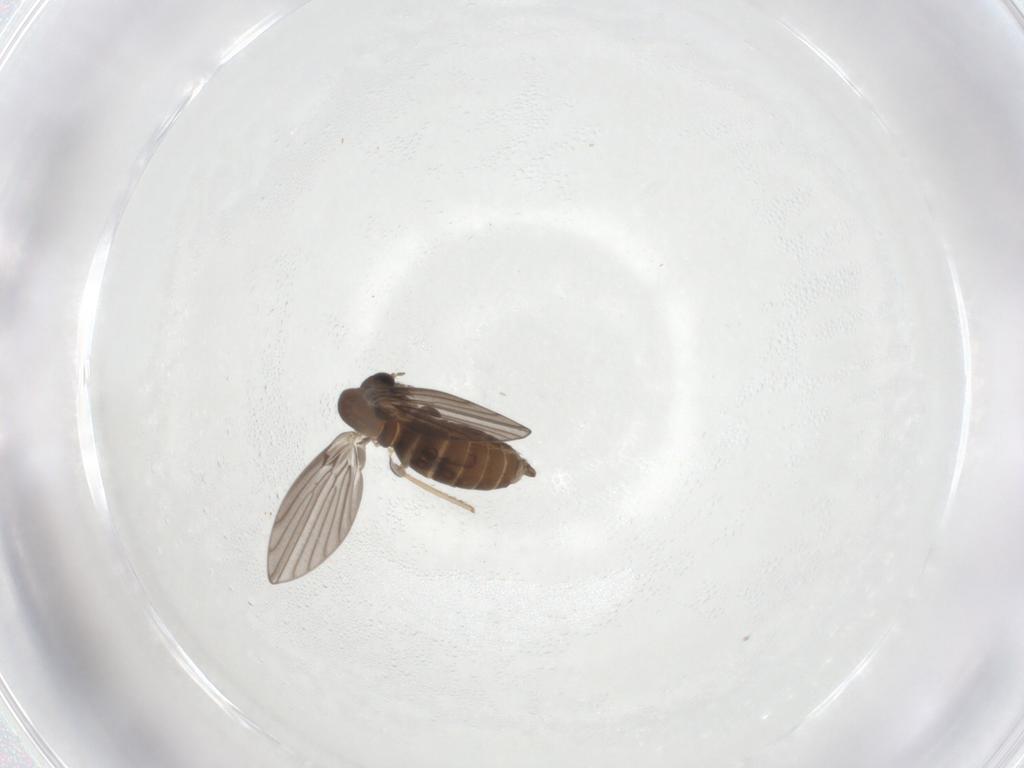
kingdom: Animalia
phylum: Arthropoda
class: Insecta
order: Diptera
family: Psychodidae
